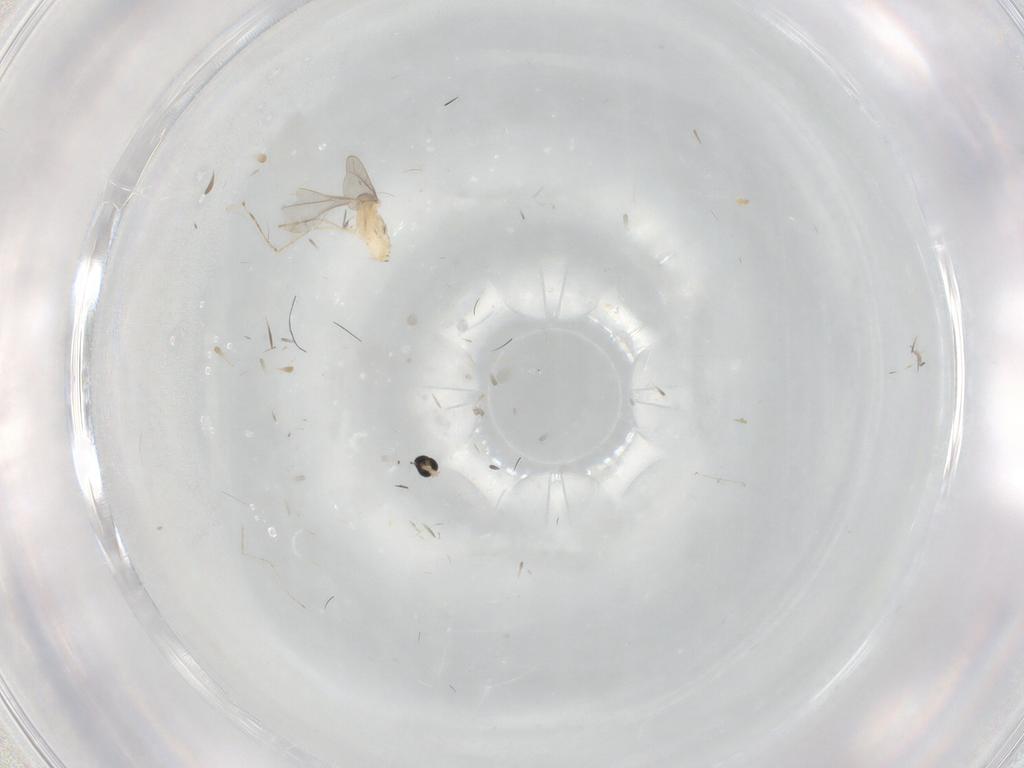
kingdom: Animalia
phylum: Arthropoda
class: Insecta
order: Diptera
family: Cecidomyiidae
